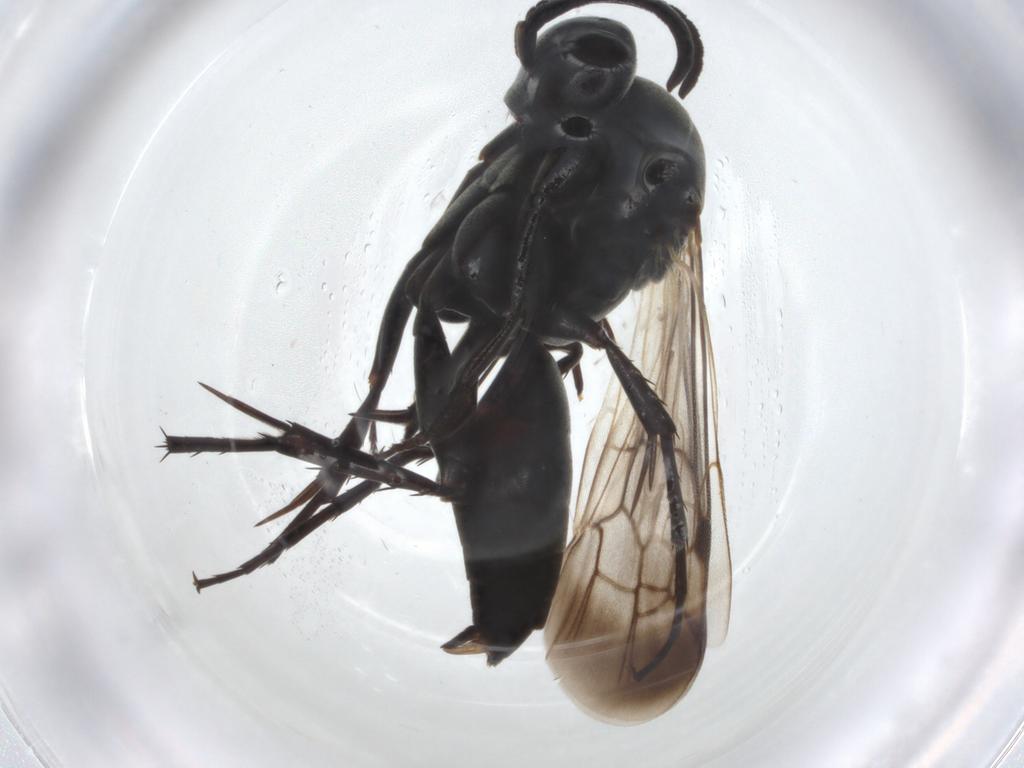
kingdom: Animalia
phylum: Arthropoda
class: Insecta
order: Hymenoptera
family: Pompilidae
